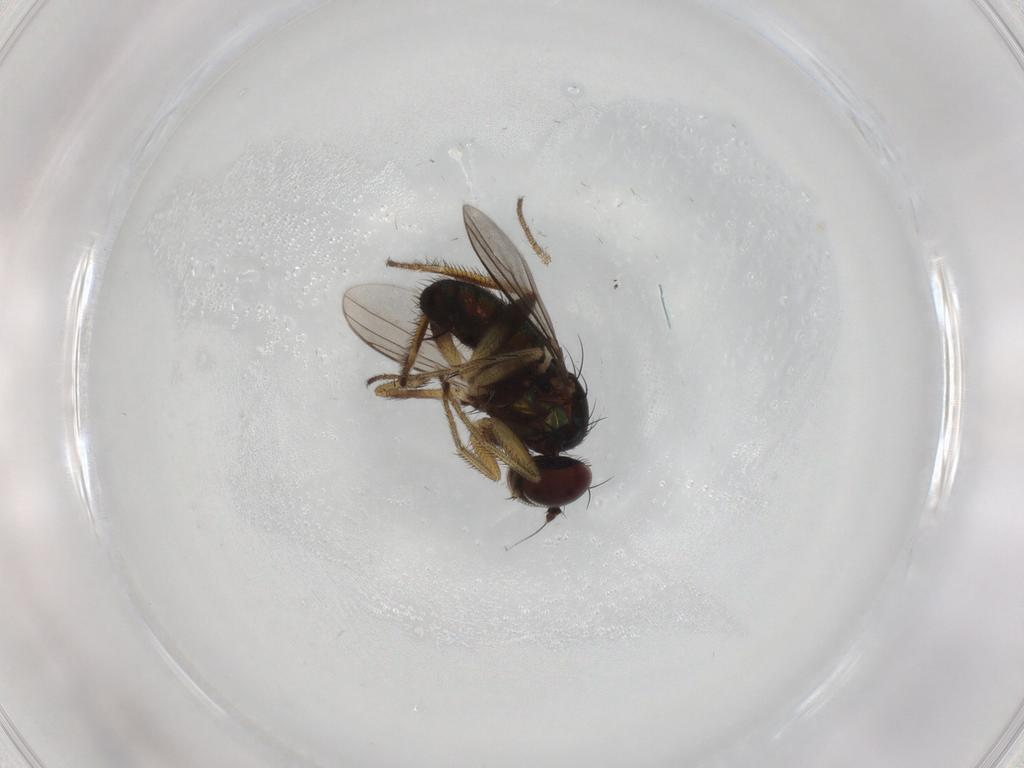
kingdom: Animalia
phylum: Arthropoda
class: Insecta
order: Diptera
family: Dolichopodidae
